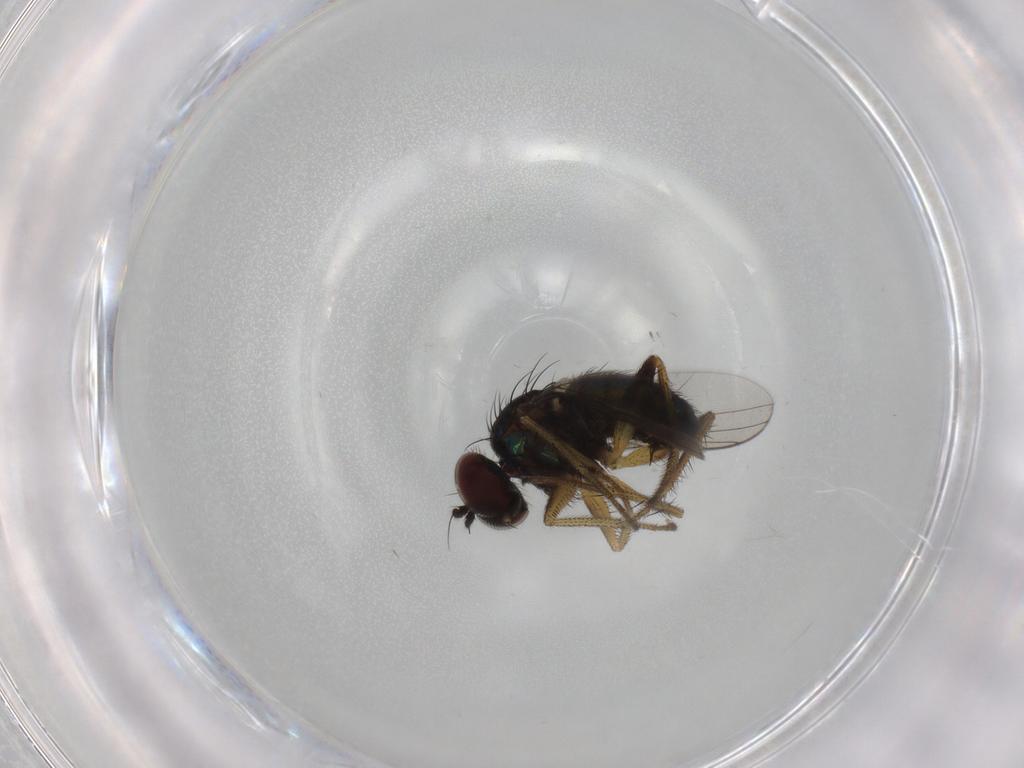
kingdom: Animalia
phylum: Arthropoda
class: Insecta
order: Diptera
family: Dolichopodidae
